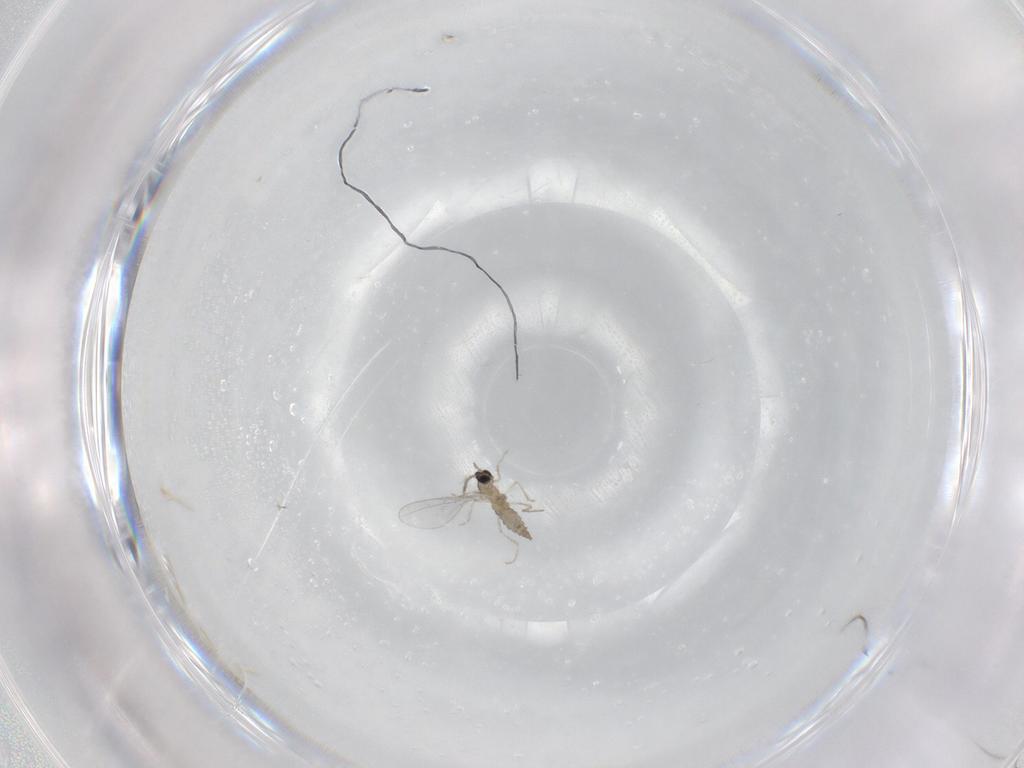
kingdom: Animalia
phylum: Arthropoda
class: Insecta
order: Diptera
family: Cecidomyiidae
